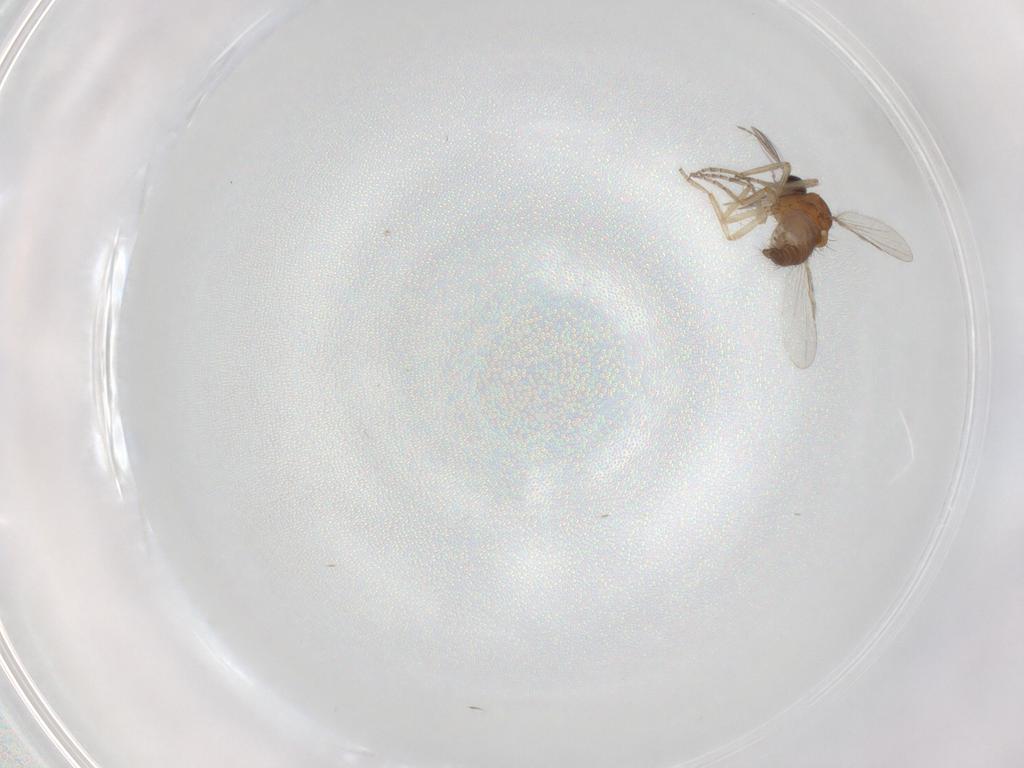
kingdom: Animalia
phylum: Arthropoda
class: Insecta
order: Diptera
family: Ceratopogonidae
